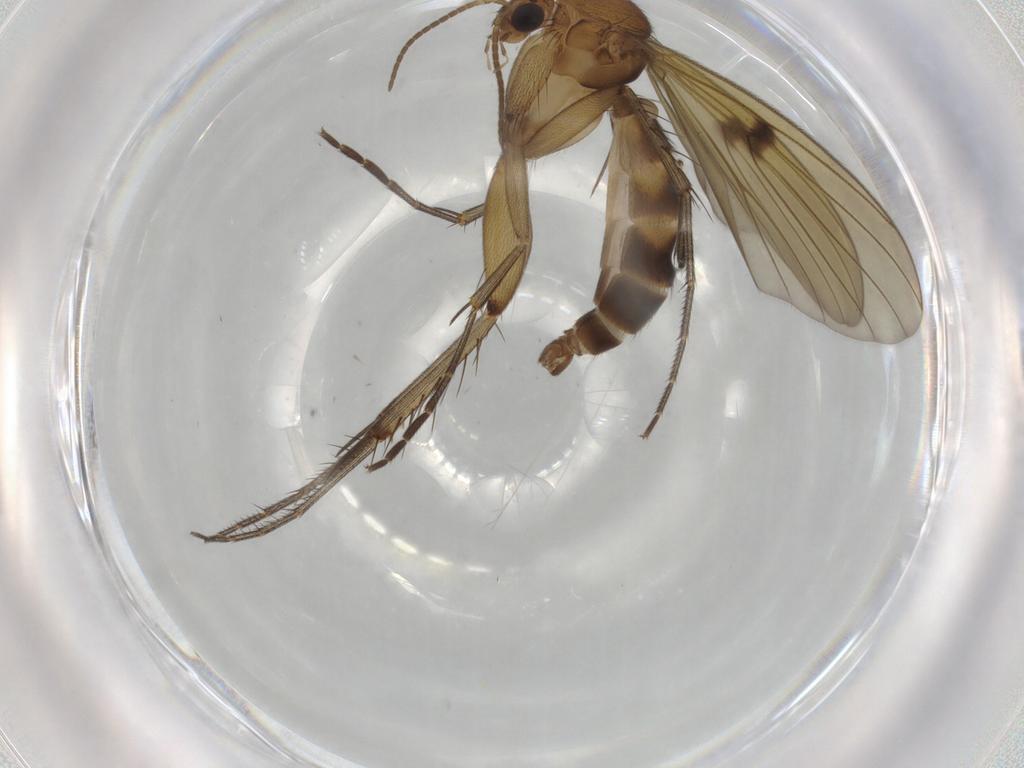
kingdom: Animalia
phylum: Arthropoda
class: Insecta
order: Diptera
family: Mycetophilidae
